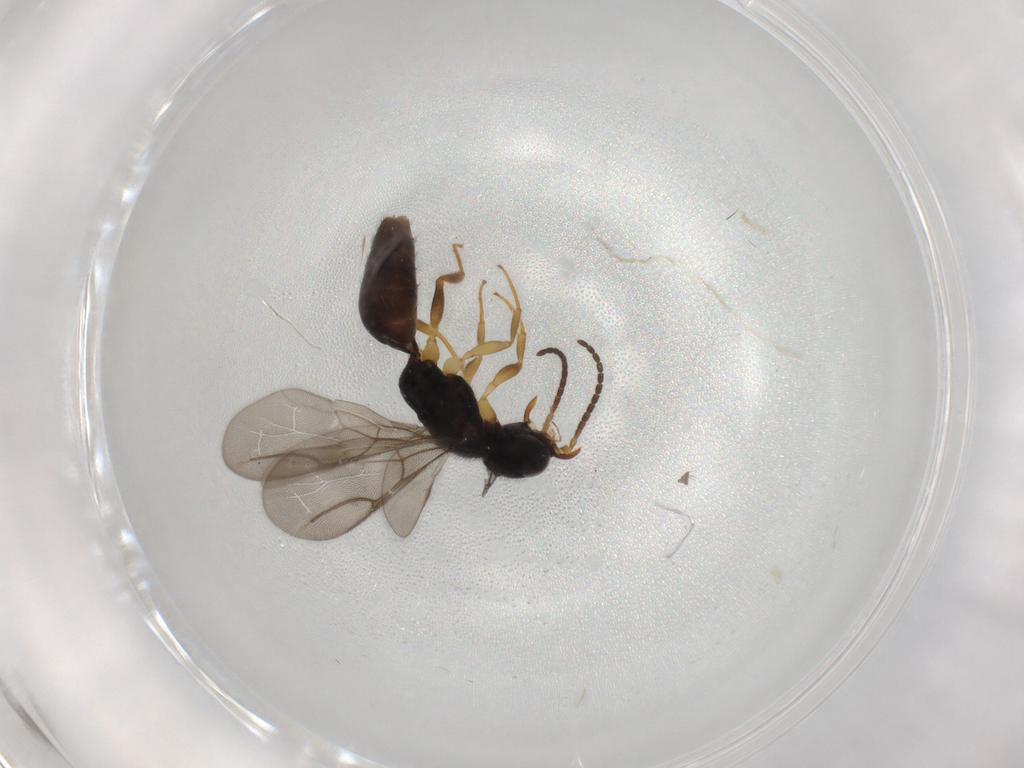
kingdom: Animalia
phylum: Arthropoda
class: Insecta
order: Hymenoptera
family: Bethylidae
